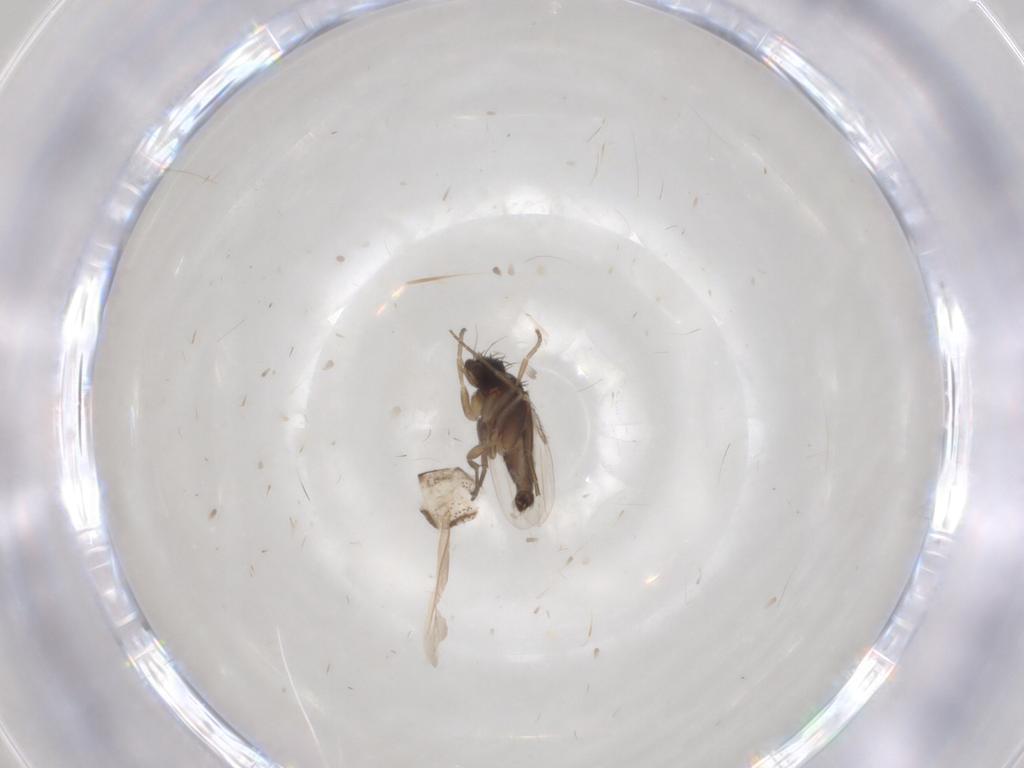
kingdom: Animalia
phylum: Arthropoda
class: Insecta
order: Diptera
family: Phoridae
